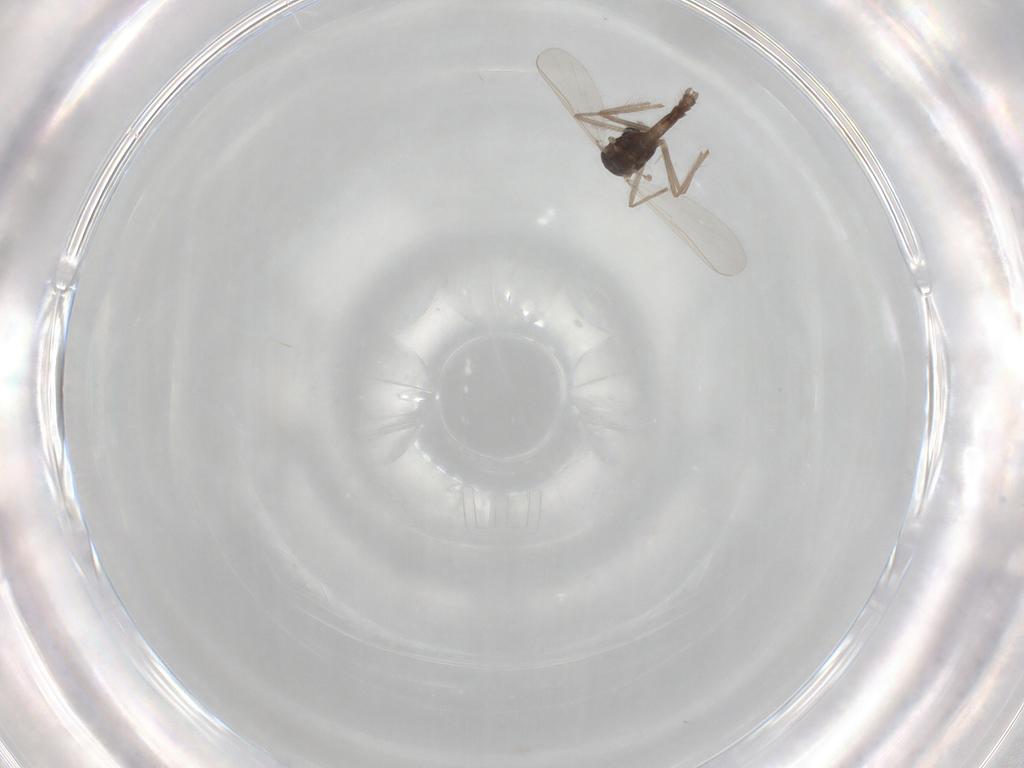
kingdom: Animalia
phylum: Arthropoda
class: Insecta
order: Diptera
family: Chironomidae
